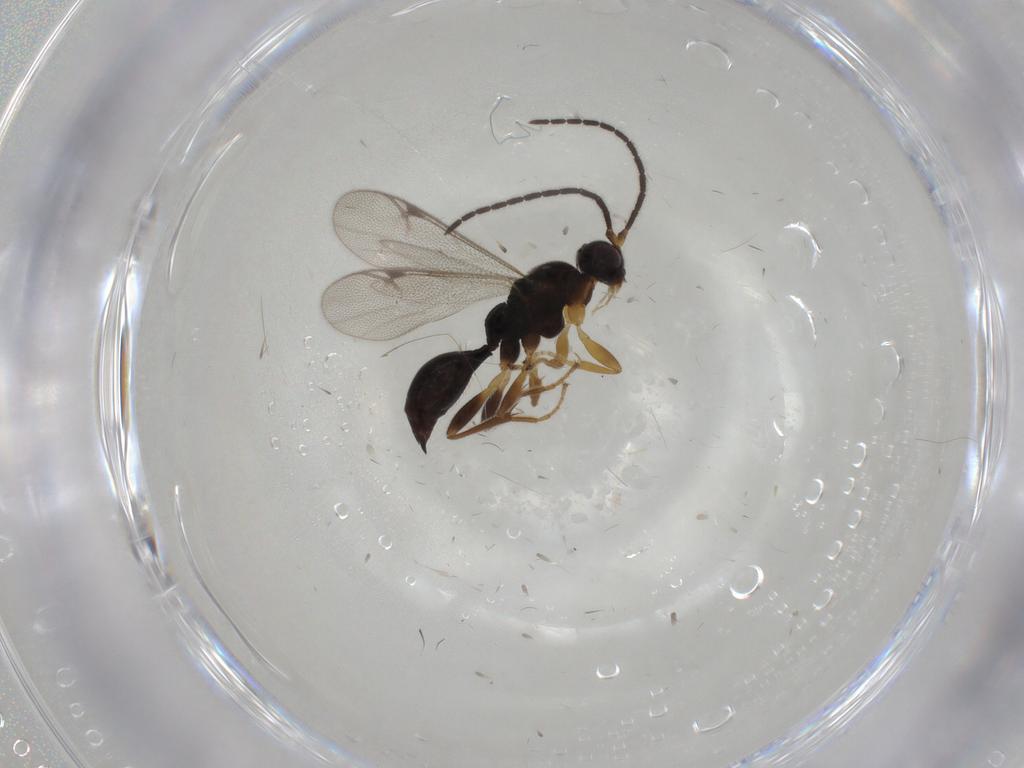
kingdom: Animalia
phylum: Arthropoda
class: Insecta
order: Hymenoptera
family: Proctotrupidae
